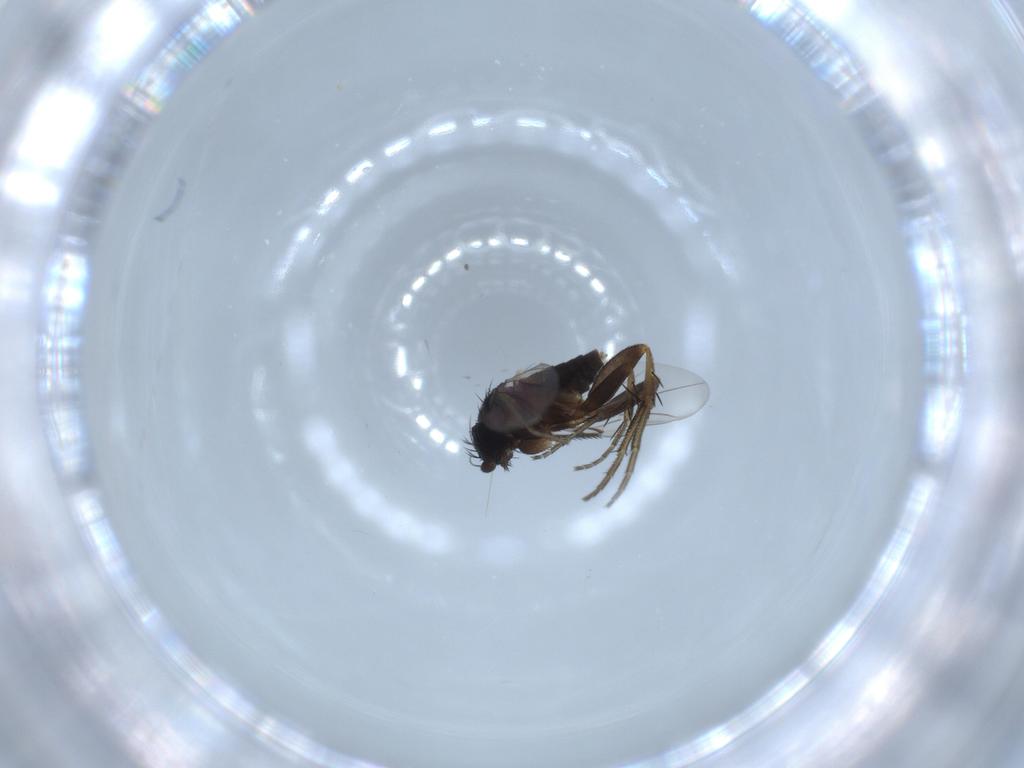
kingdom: Animalia
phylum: Arthropoda
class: Insecta
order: Diptera
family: Phoridae
